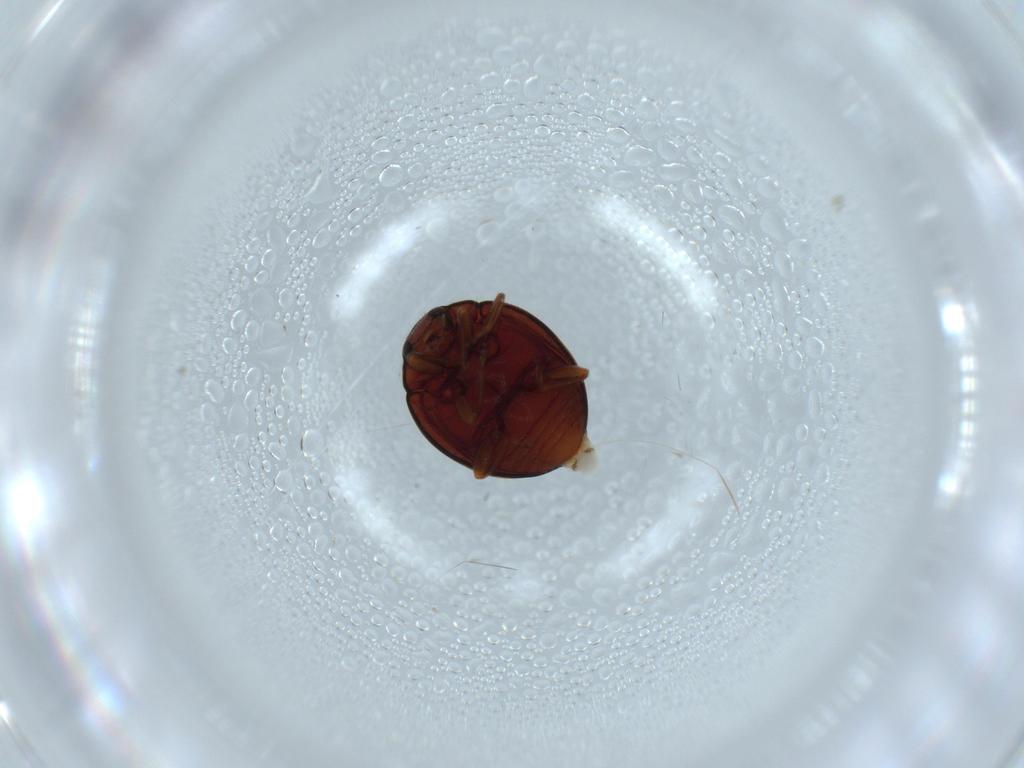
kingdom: Animalia
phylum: Arthropoda
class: Insecta
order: Coleoptera
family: Coccinellidae
